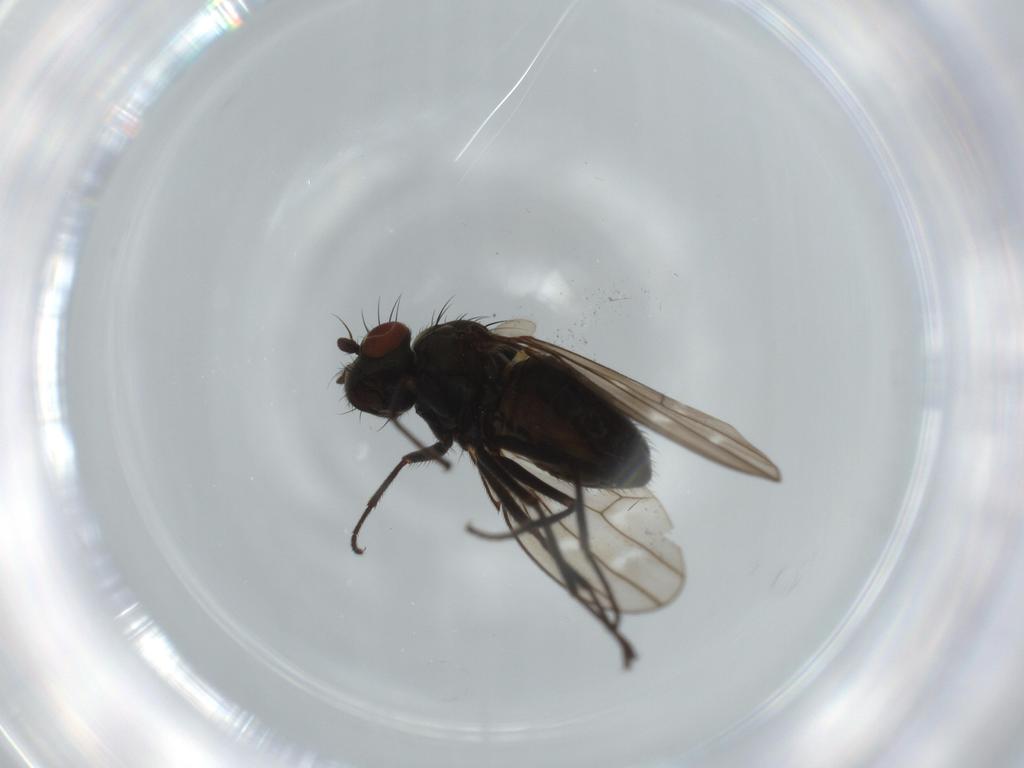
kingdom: Animalia
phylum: Arthropoda
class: Insecta
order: Diptera
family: Ephydridae
